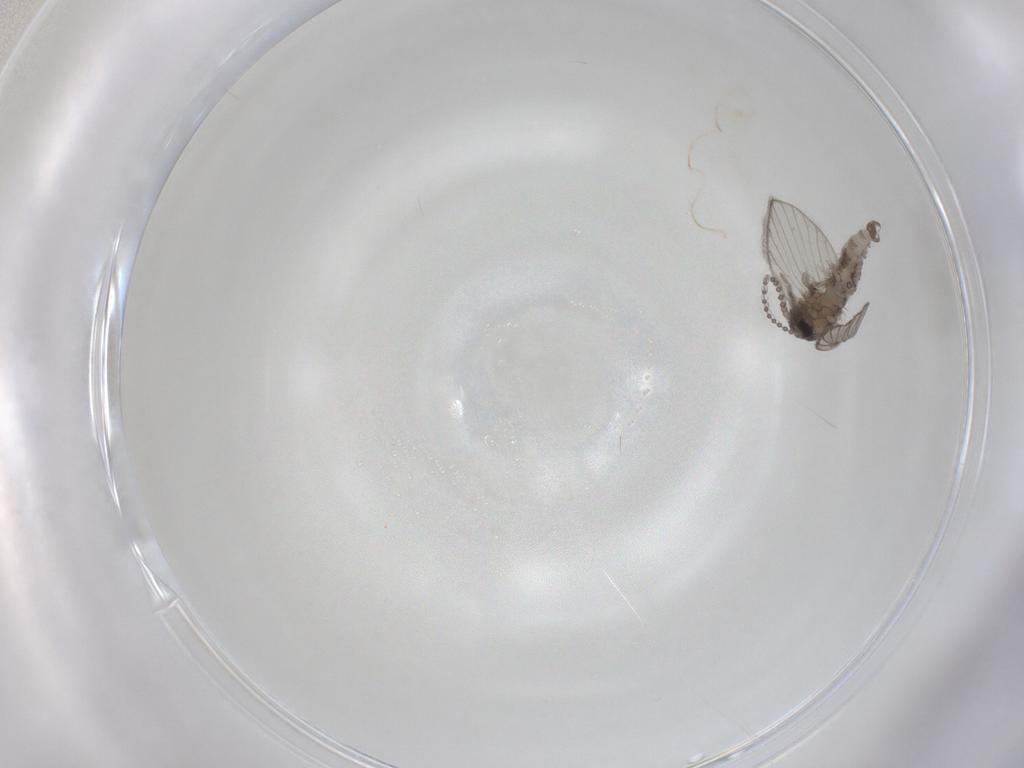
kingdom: Animalia
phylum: Arthropoda
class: Insecta
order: Diptera
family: Psychodidae
